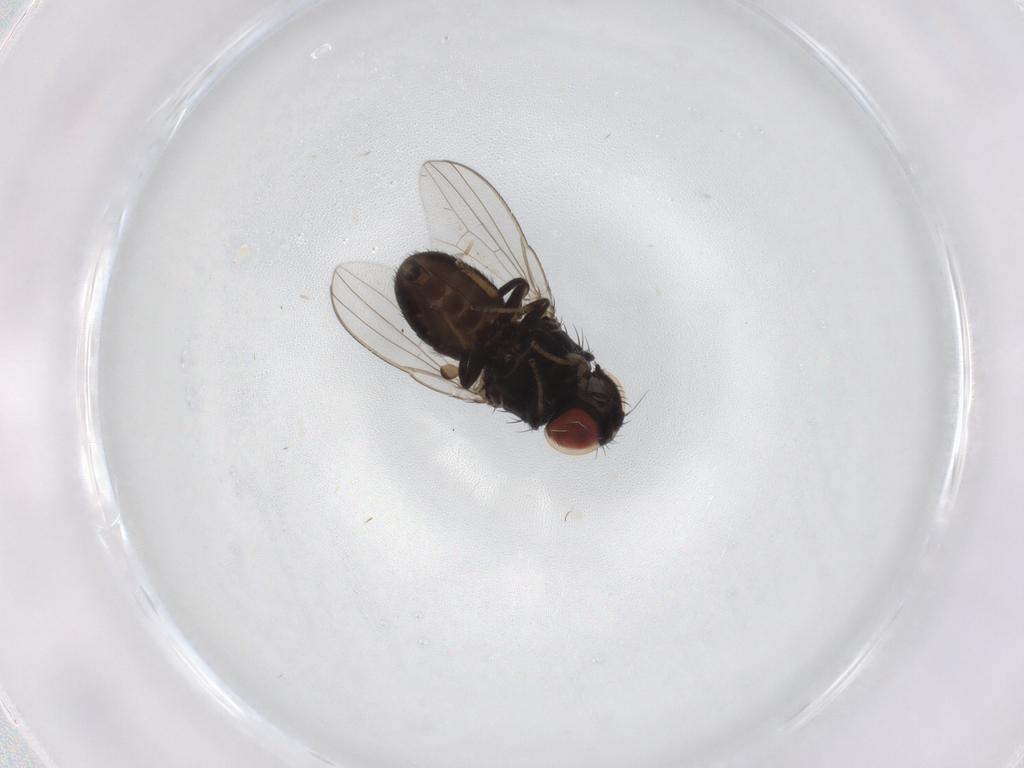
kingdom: Animalia
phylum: Arthropoda
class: Insecta
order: Diptera
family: Milichiidae
